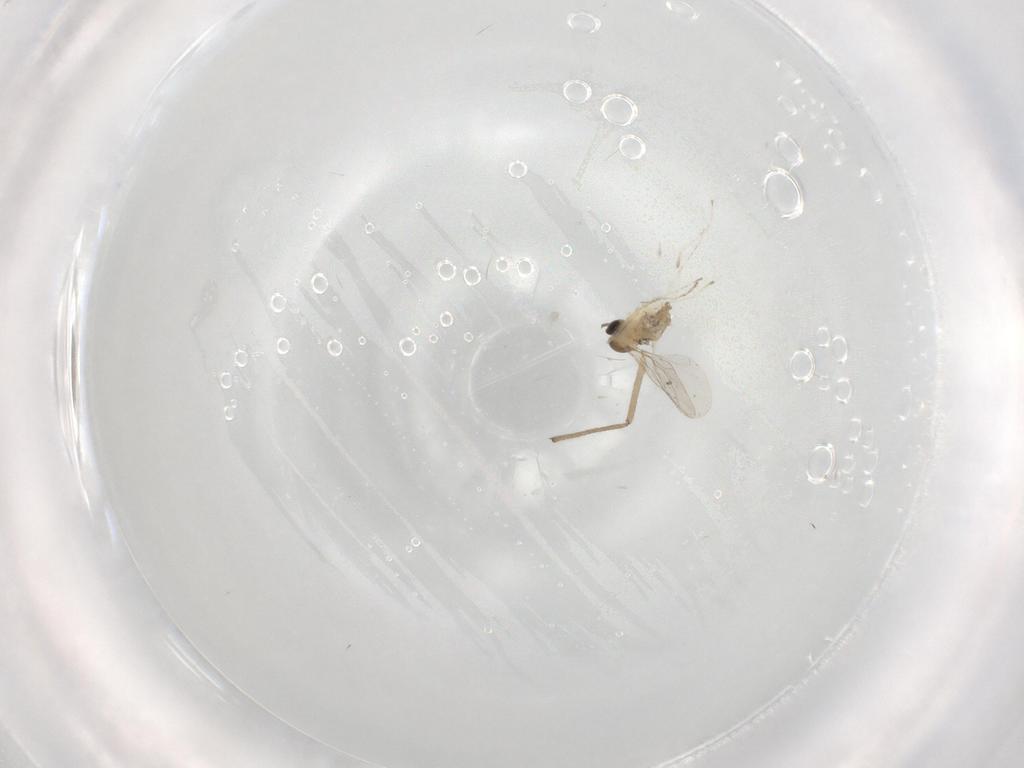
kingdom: Animalia
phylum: Arthropoda
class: Insecta
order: Diptera
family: Cecidomyiidae
